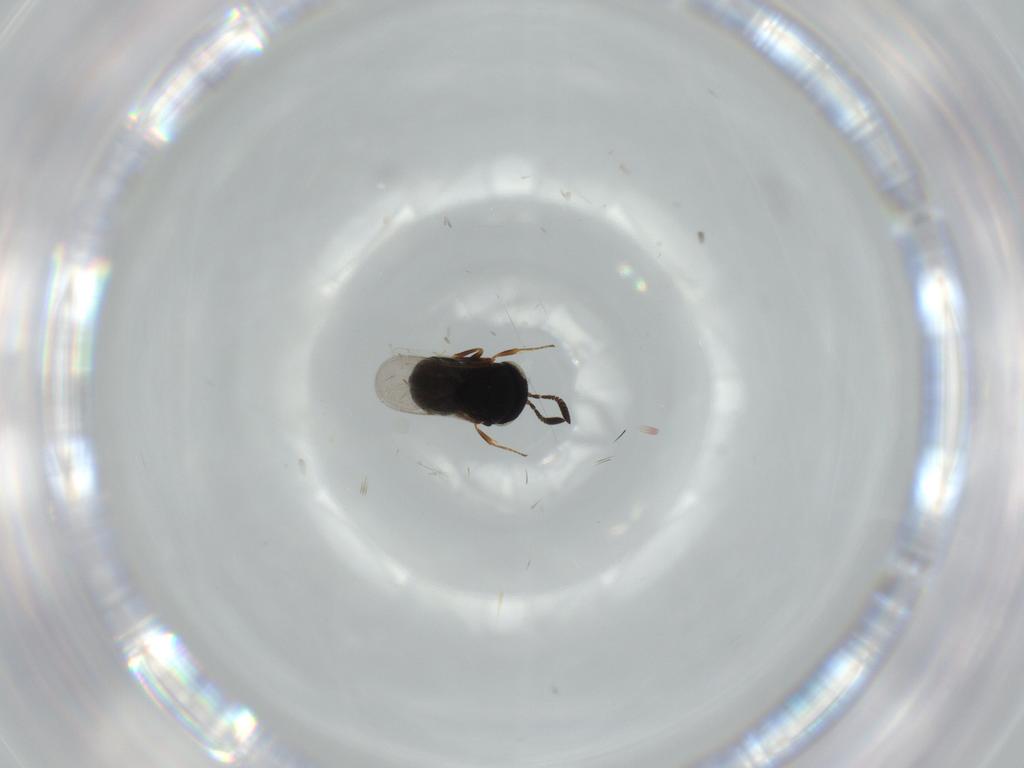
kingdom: Animalia
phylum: Arthropoda
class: Insecta
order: Hymenoptera
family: Scelionidae
